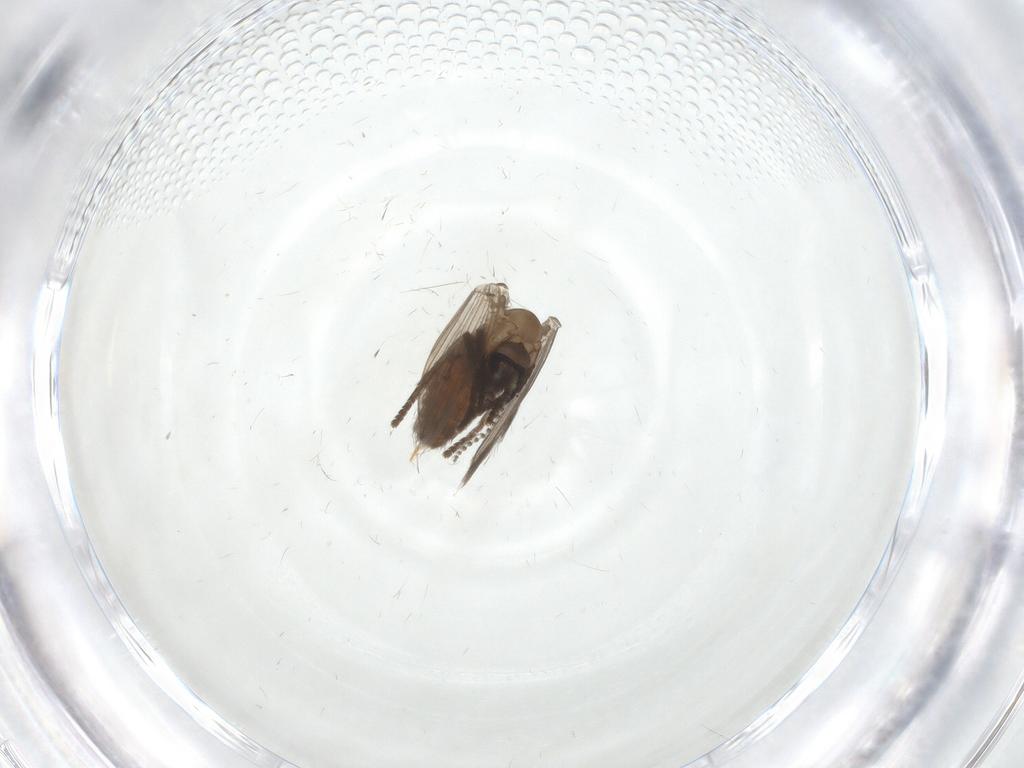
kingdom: Animalia
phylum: Arthropoda
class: Insecta
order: Diptera
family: Psychodidae
